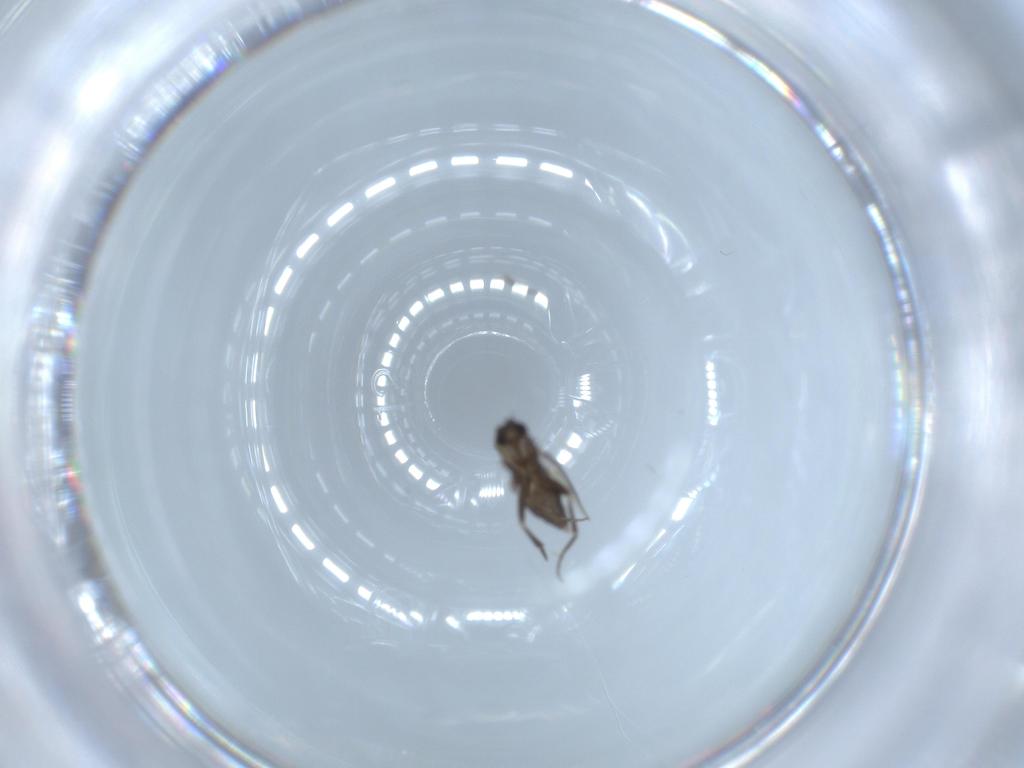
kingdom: Animalia
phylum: Arthropoda
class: Insecta
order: Diptera
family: Phoridae
